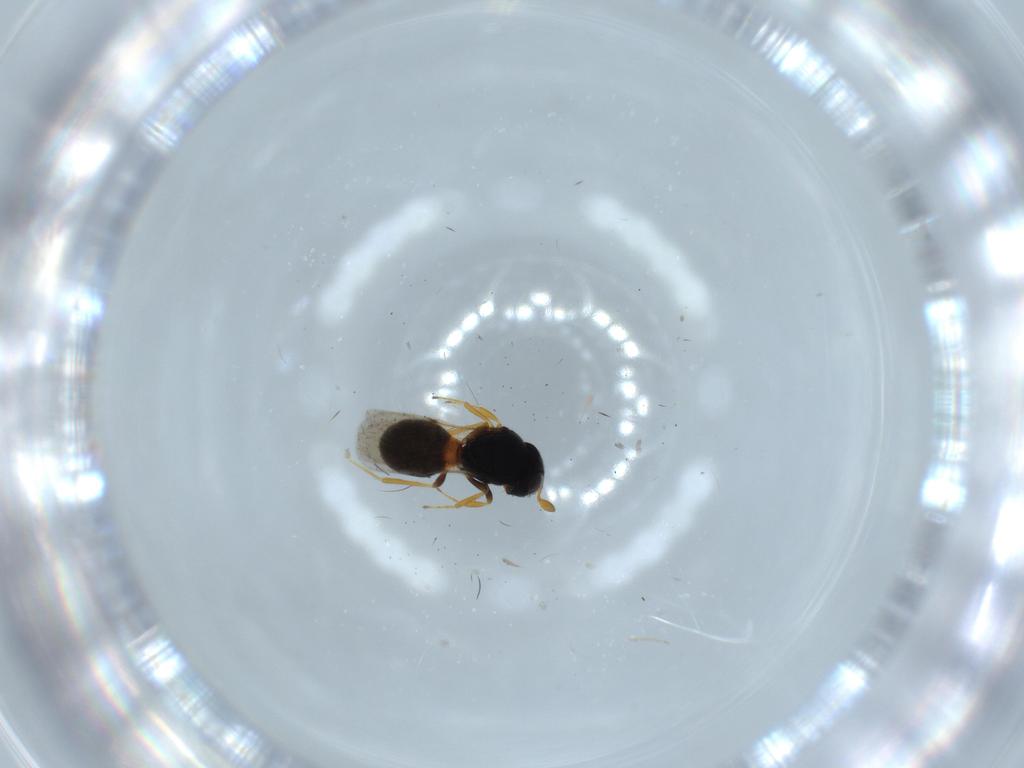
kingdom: Animalia
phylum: Arthropoda
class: Insecta
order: Hymenoptera
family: Scelionidae
